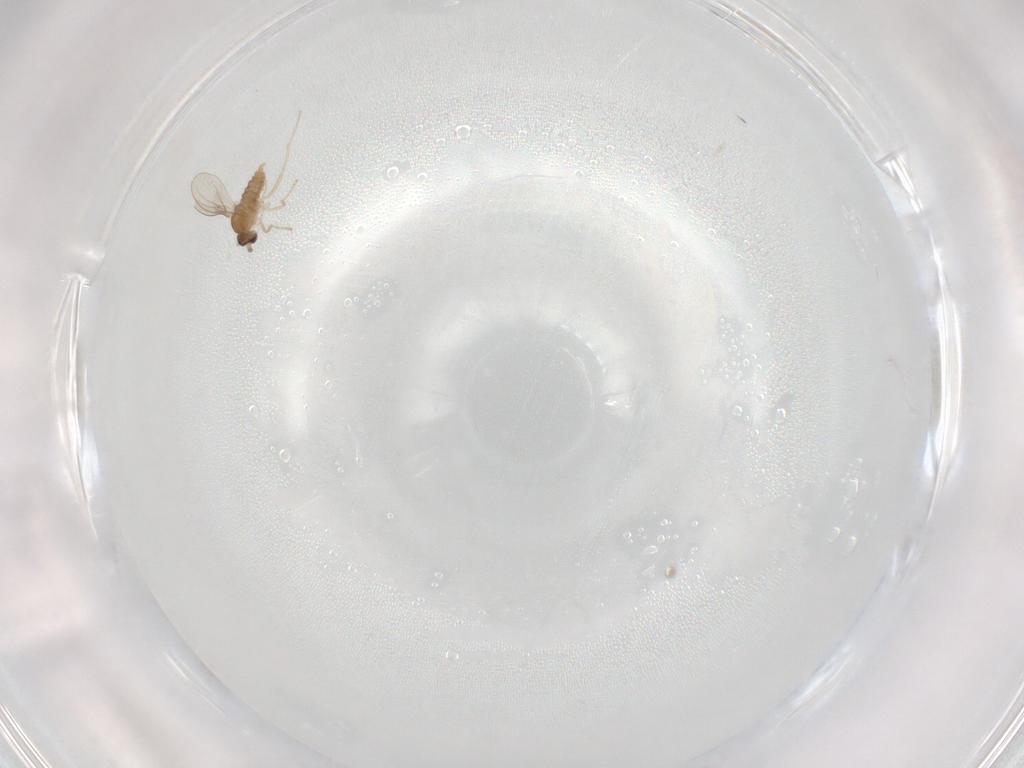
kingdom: Animalia
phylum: Arthropoda
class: Insecta
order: Diptera
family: Cecidomyiidae
